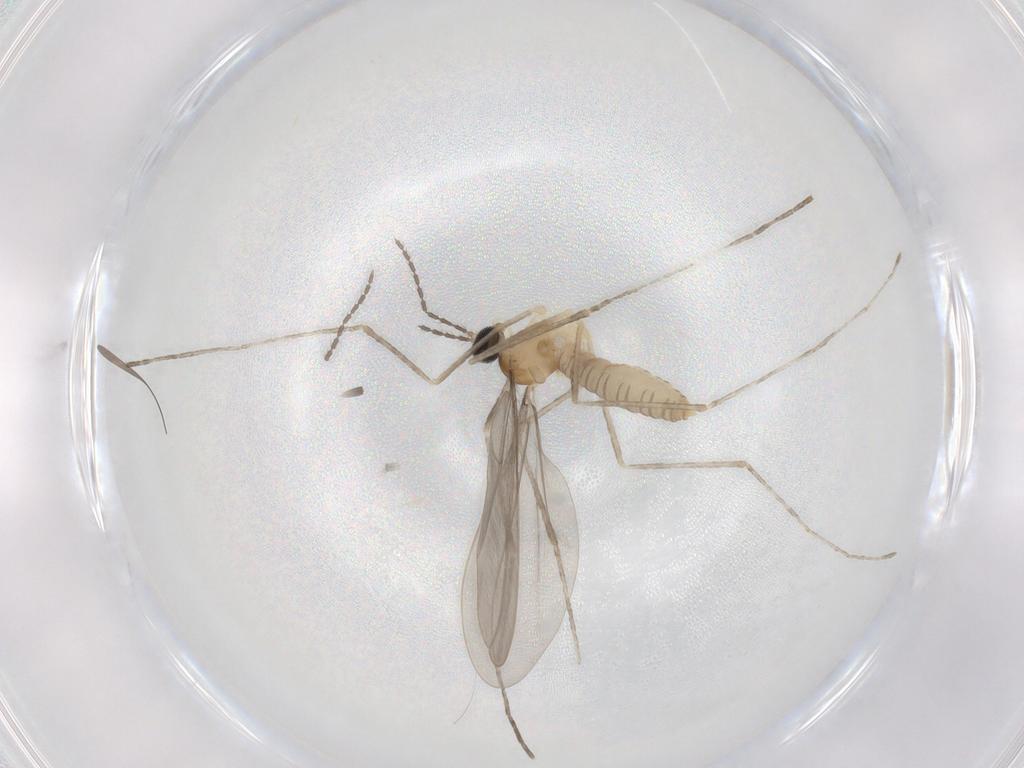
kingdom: Animalia
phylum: Arthropoda
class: Insecta
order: Diptera
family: Cecidomyiidae
